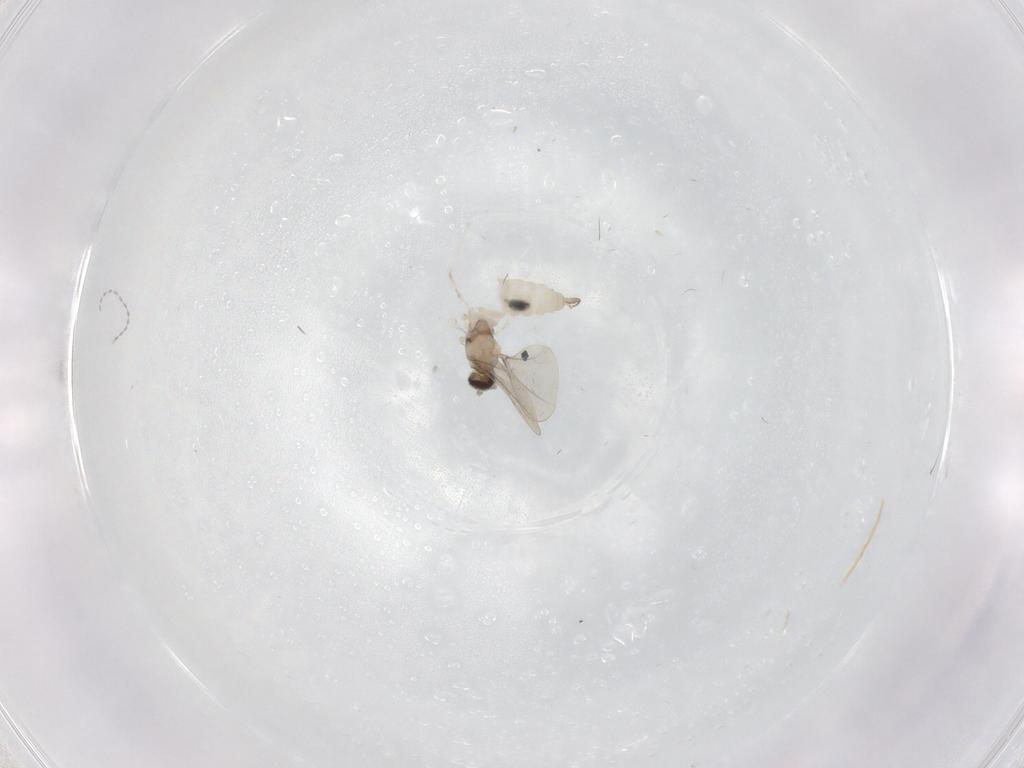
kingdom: Animalia
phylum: Arthropoda
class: Insecta
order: Diptera
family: Cecidomyiidae
